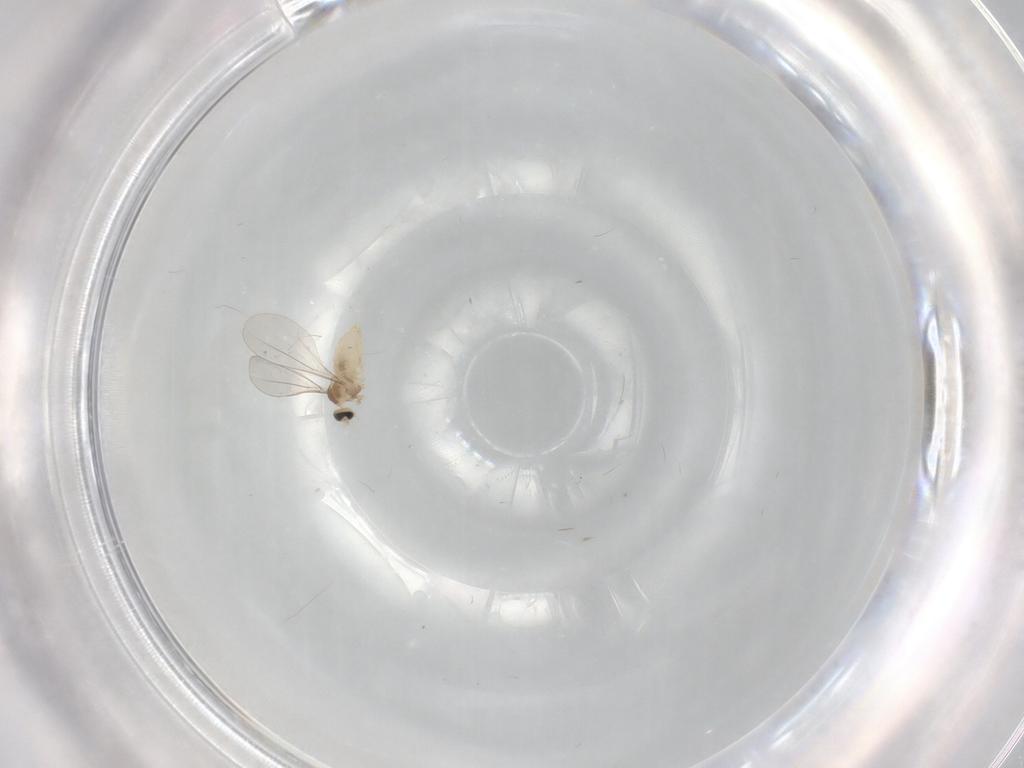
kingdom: Animalia
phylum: Arthropoda
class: Insecta
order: Diptera
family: Cecidomyiidae
